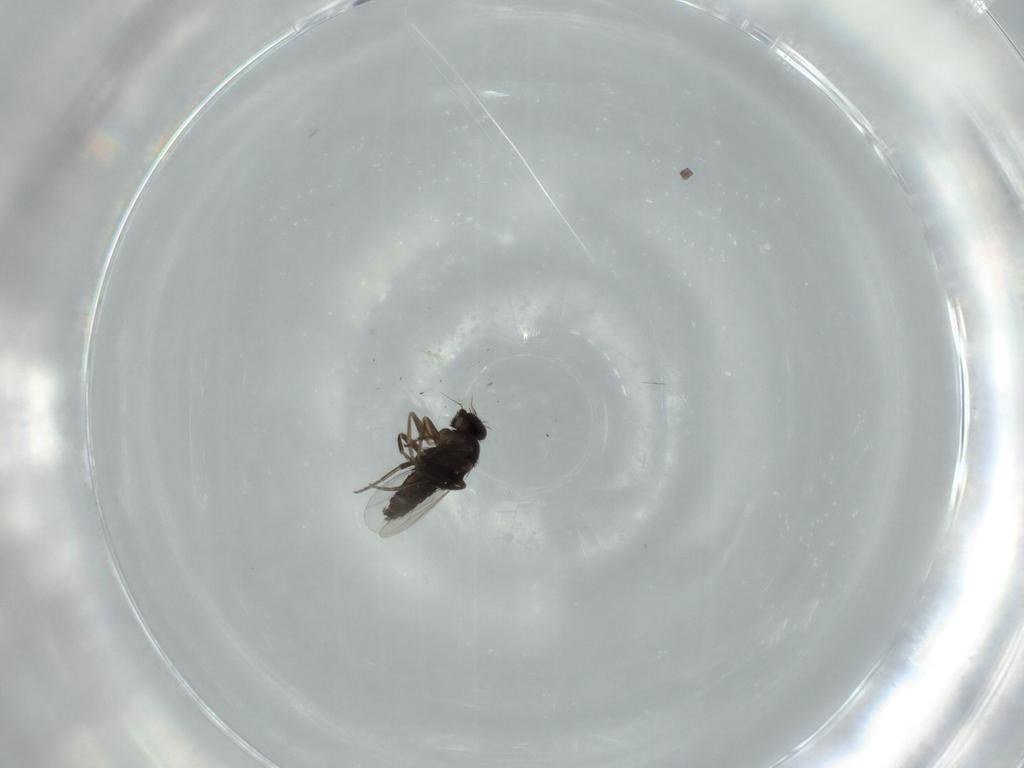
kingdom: Animalia
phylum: Arthropoda
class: Insecta
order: Diptera
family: Phoridae
